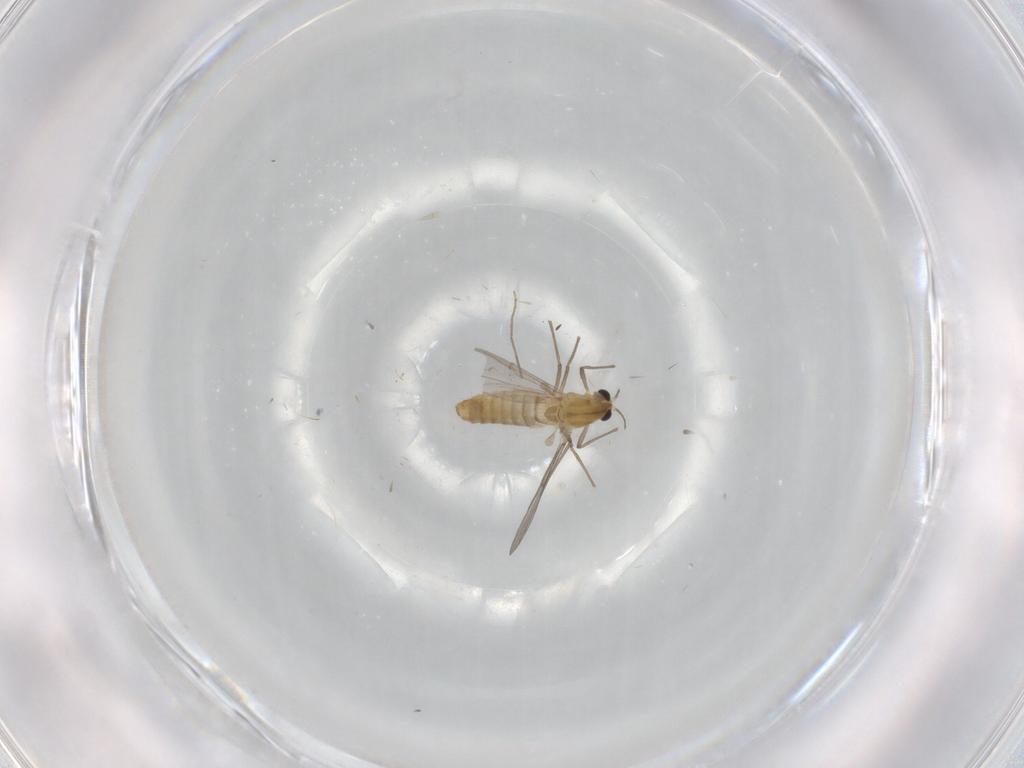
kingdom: Animalia
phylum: Arthropoda
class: Insecta
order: Diptera
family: Chironomidae
